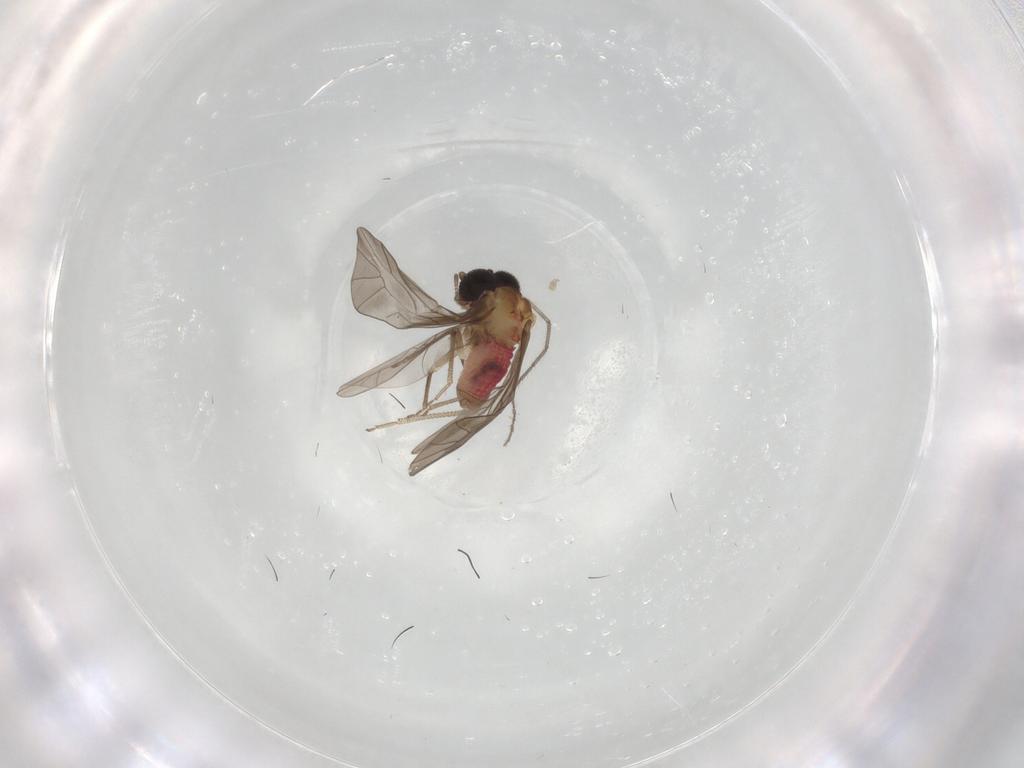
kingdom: Animalia
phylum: Arthropoda
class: Insecta
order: Psocodea
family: Lachesillidae
